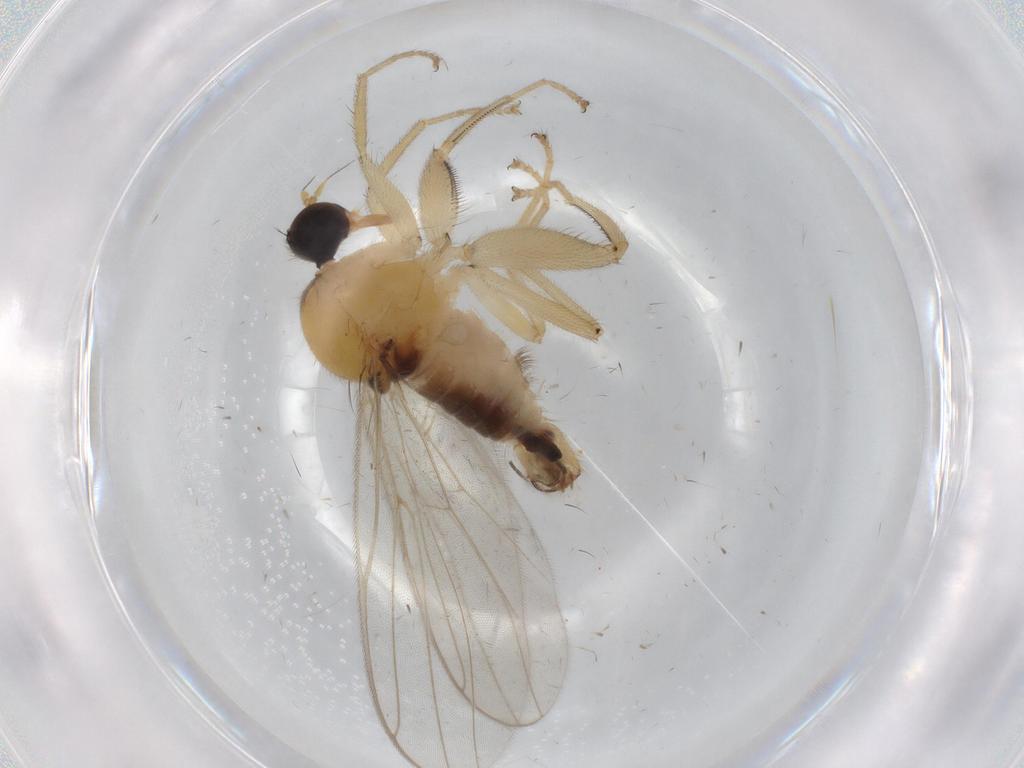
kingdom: Animalia
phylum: Arthropoda
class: Insecta
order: Diptera
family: Hybotidae
